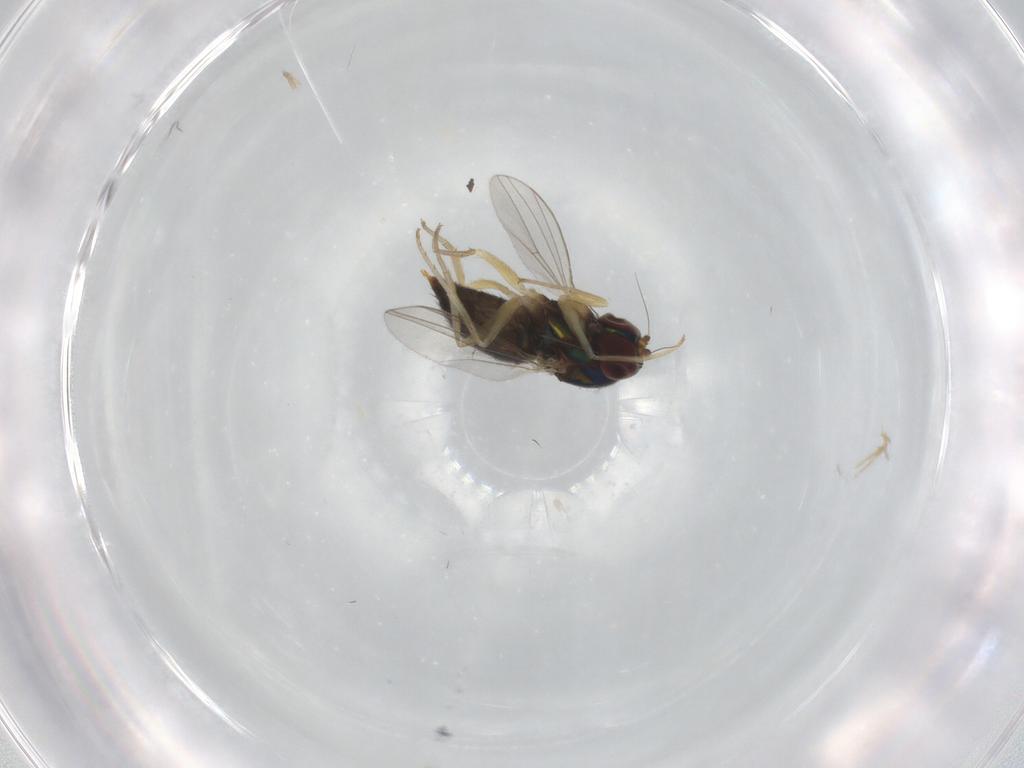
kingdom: Animalia
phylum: Arthropoda
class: Insecta
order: Diptera
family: Dolichopodidae
